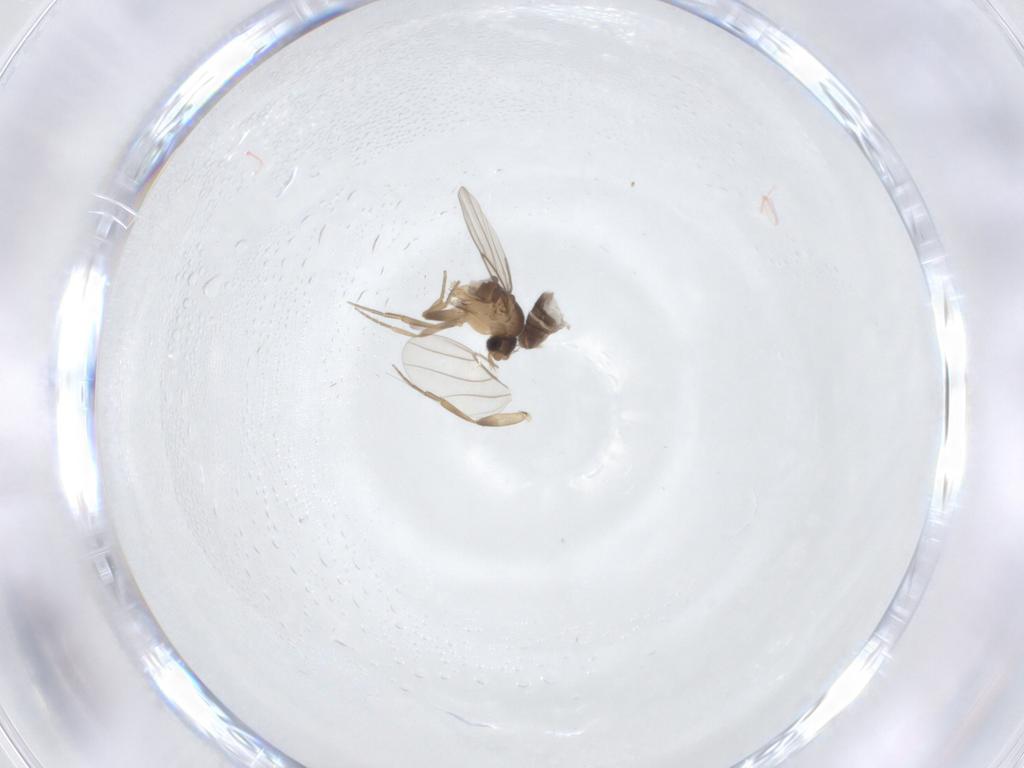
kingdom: Animalia
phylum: Arthropoda
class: Insecta
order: Diptera
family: Phoridae
